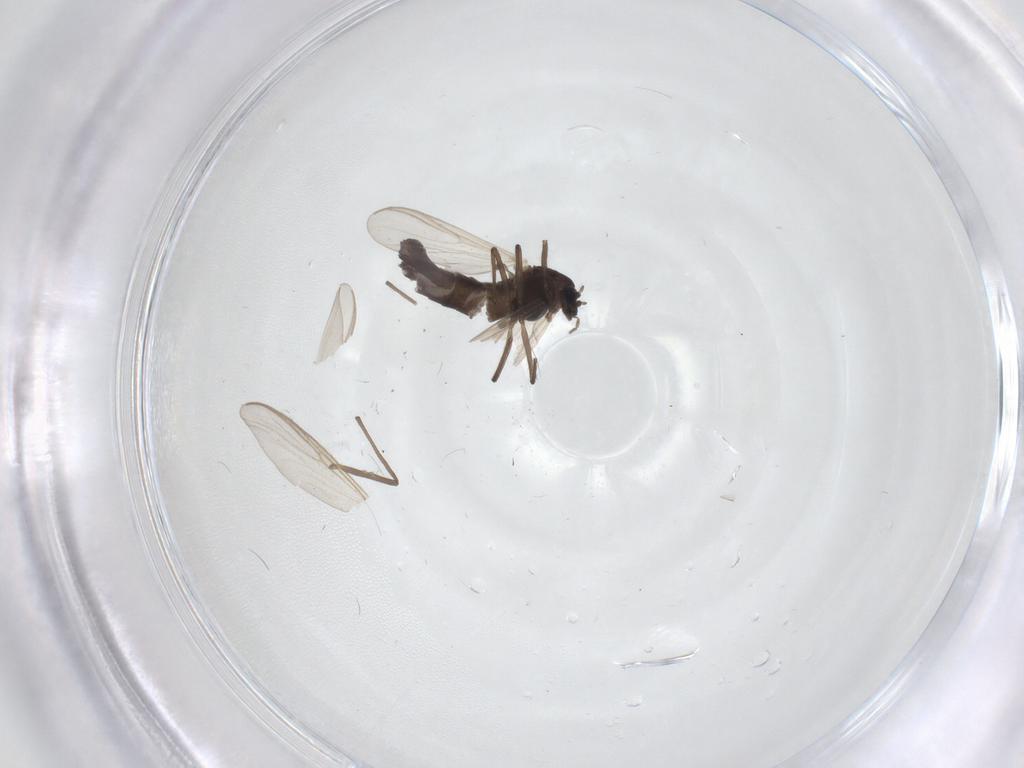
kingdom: Animalia
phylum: Arthropoda
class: Insecta
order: Diptera
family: Chironomidae
